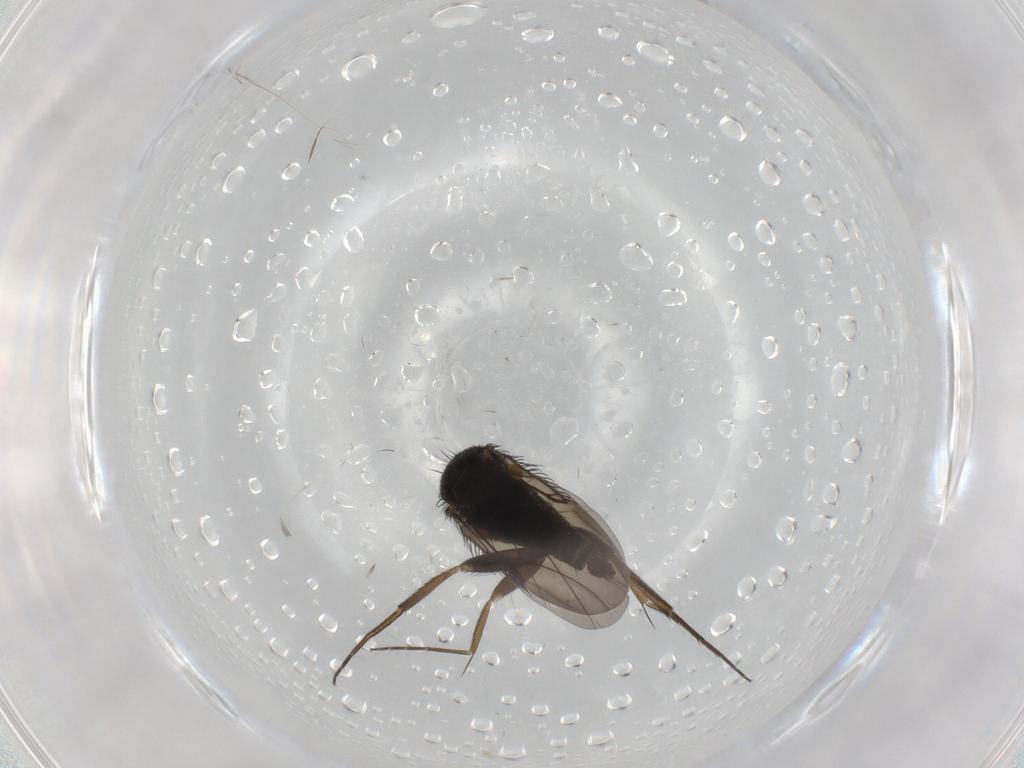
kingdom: Animalia
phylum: Arthropoda
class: Insecta
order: Diptera
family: Phoridae
